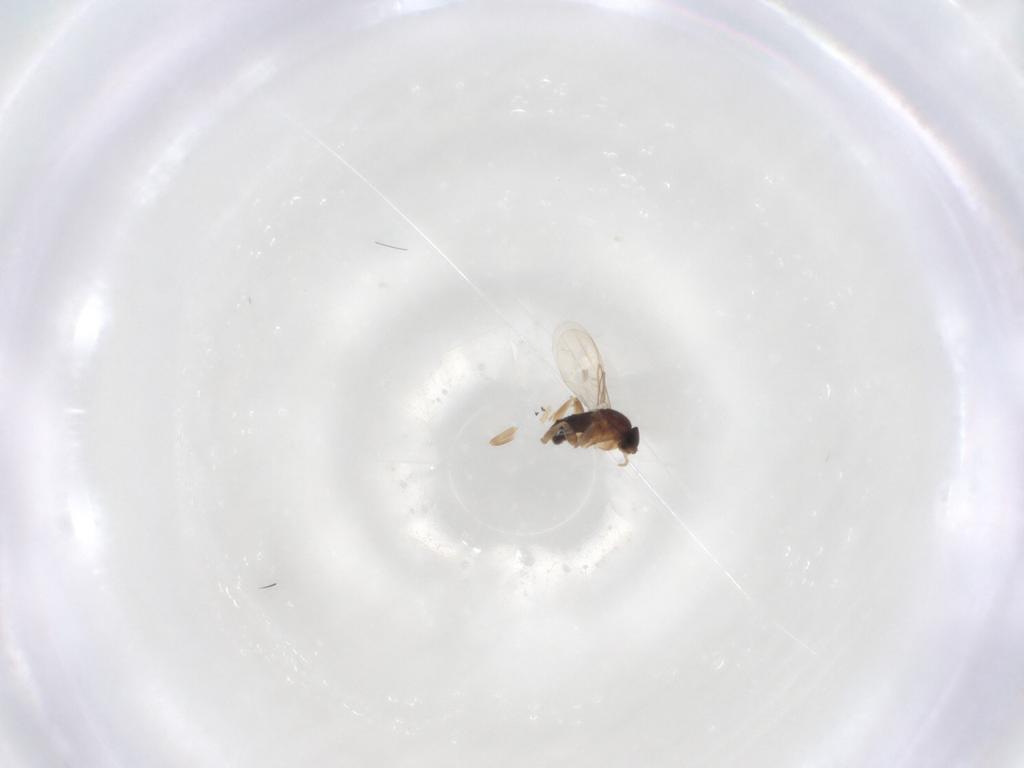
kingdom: Animalia
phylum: Arthropoda
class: Insecta
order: Diptera
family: Phoridae
